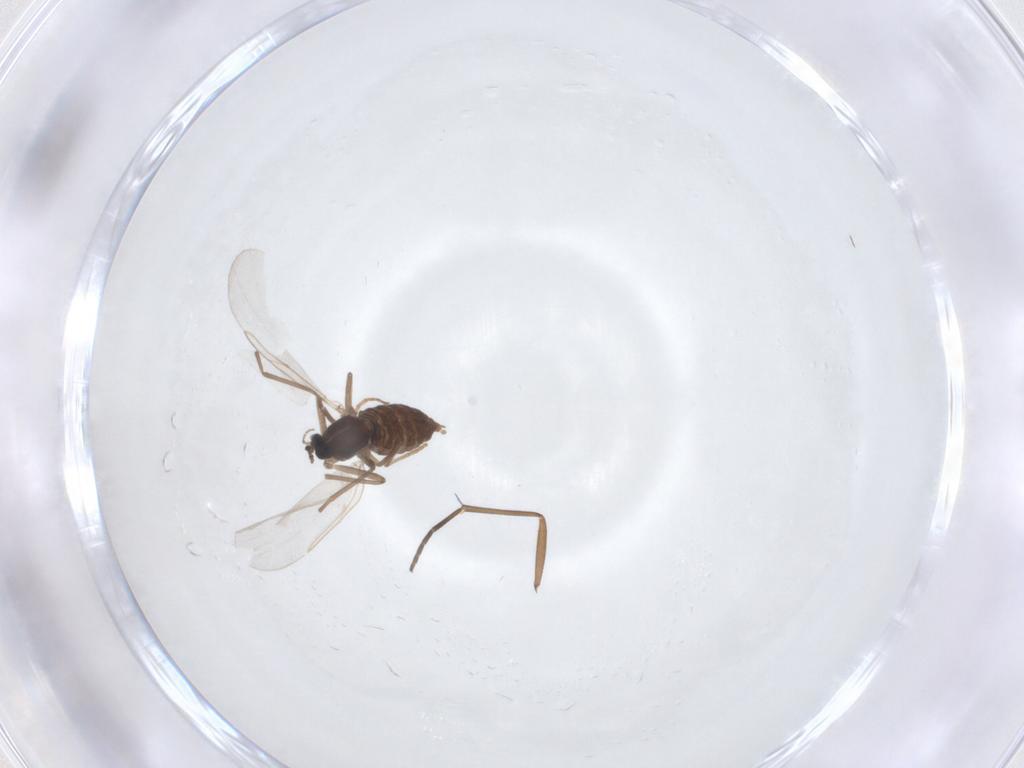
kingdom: Animalia
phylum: Arthropoda
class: Insecta
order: Diptera
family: Cecidomyiidae
